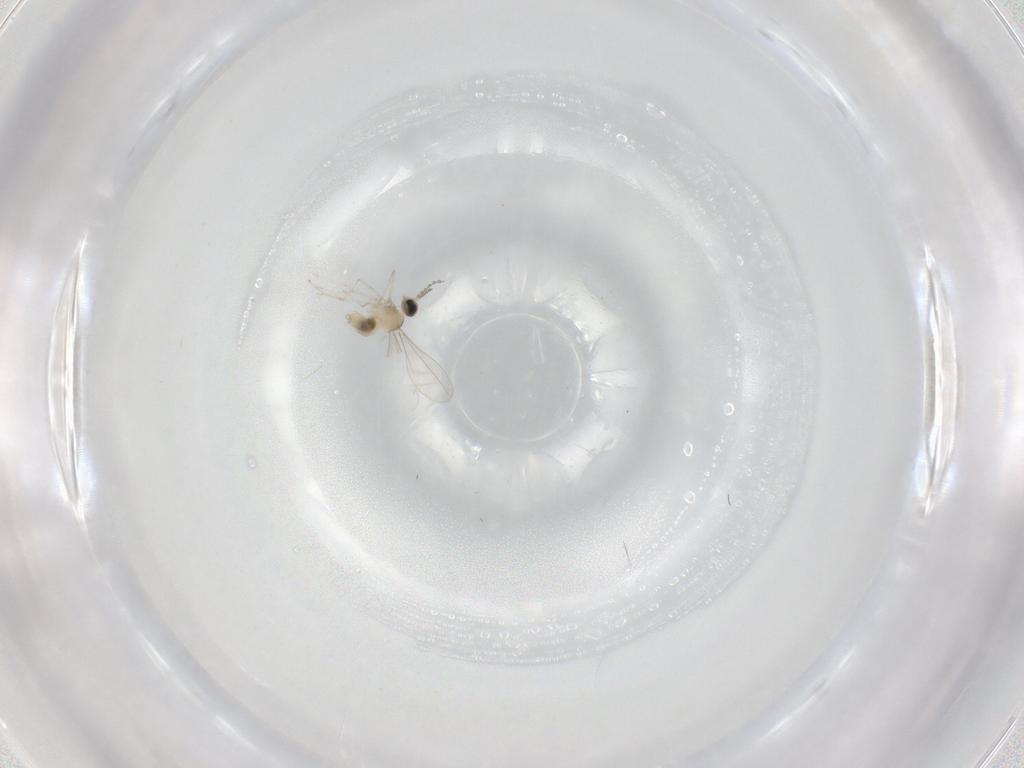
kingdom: Animalia
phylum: Arthropoda
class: Insecta
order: Diptera
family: Cecidomyiidae
